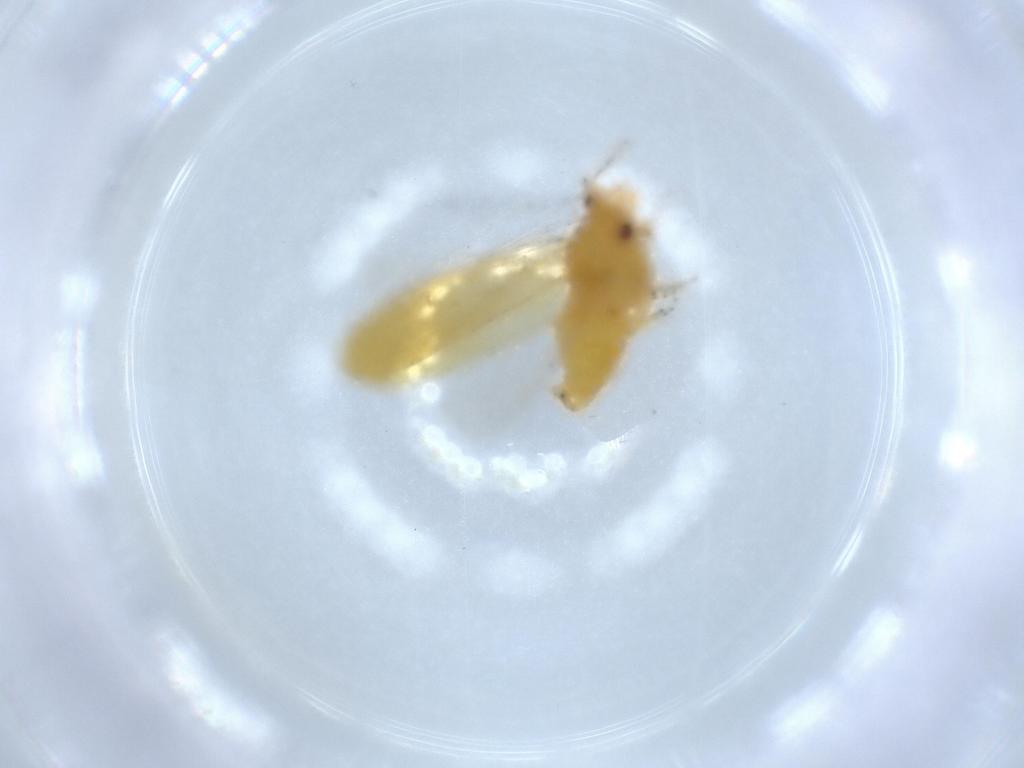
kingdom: Animalia
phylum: Arthropoda
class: Insecta
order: Hemiptera
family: Psyllidae
